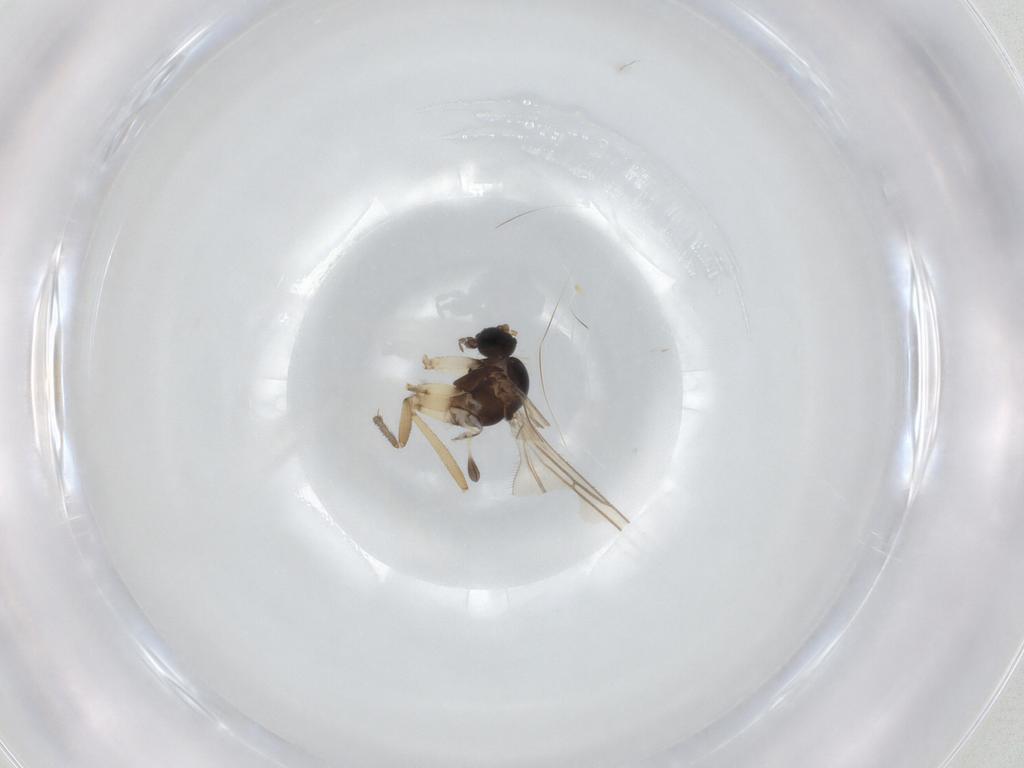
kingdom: Animalia
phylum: Arthropoda
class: Insecta
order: Diptera
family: Sciaridae
